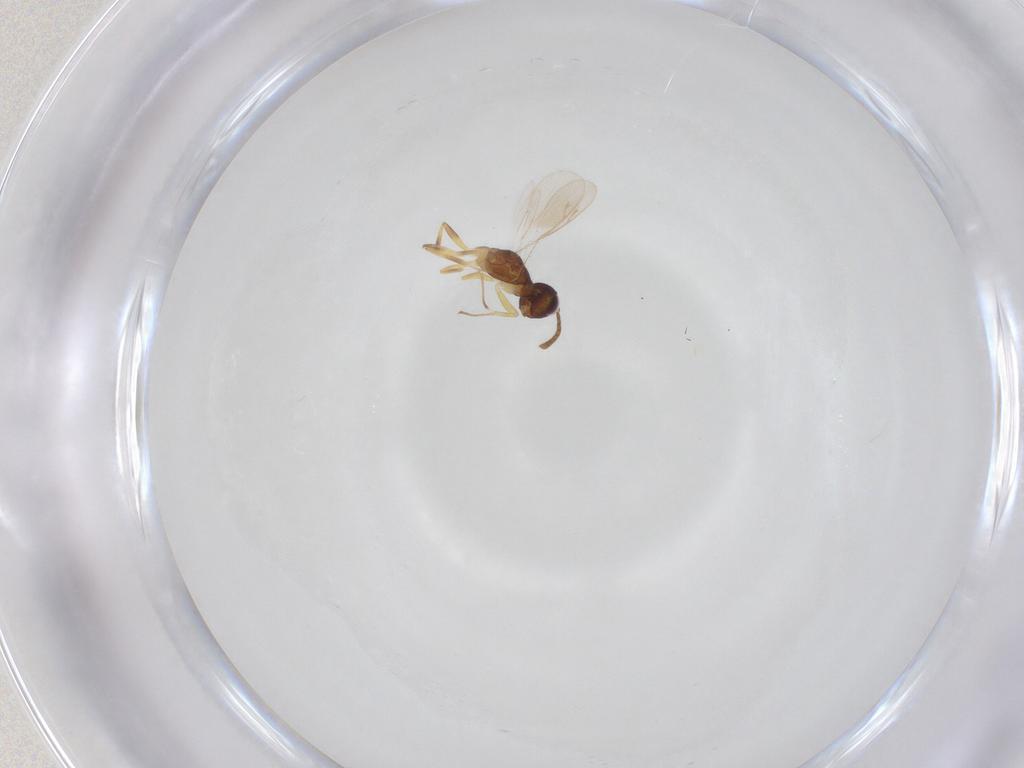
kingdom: Animalia
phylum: Arthropoda
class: Insecta
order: Hymenoptera
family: Eupelmidae
